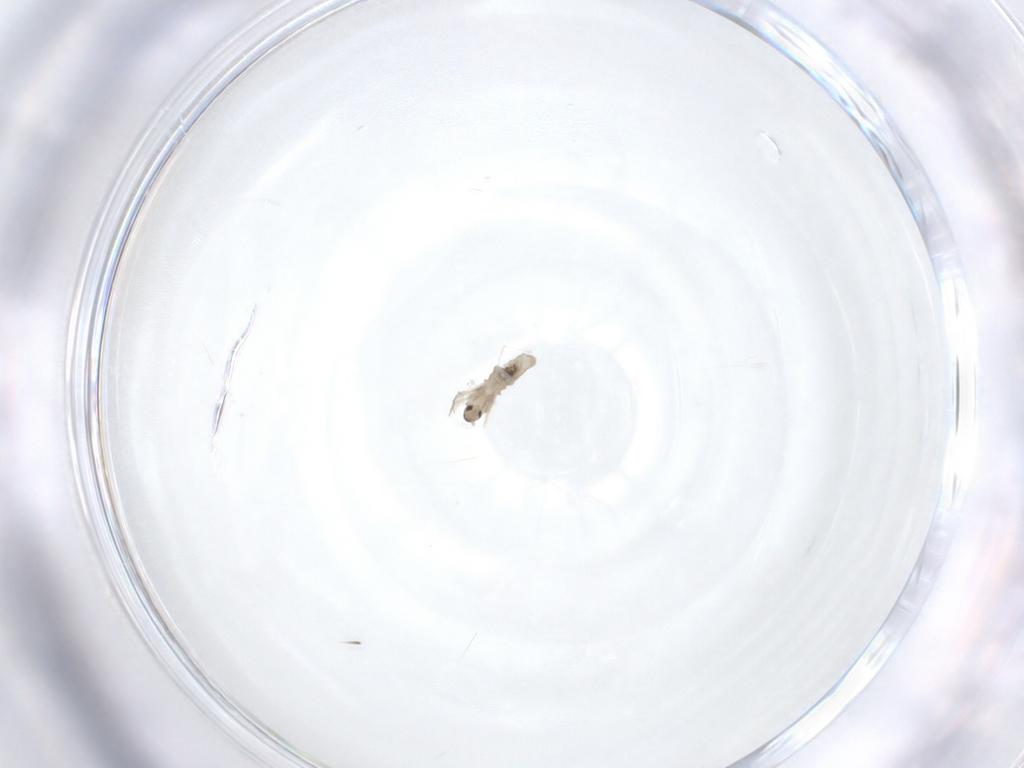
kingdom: Animalia
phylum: Arthropoda
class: Insecta
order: Diptera
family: Cecidomyiidae
